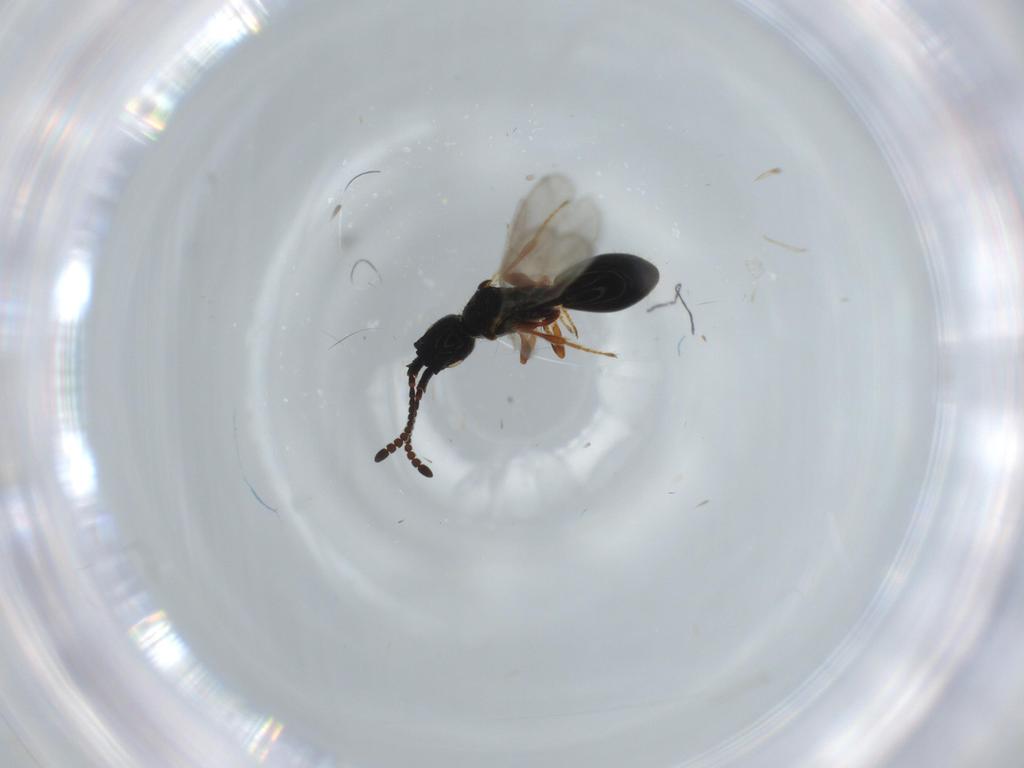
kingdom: Animalia
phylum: Arthropoda
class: Insecta
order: Hymenoptera
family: Scelionidae
